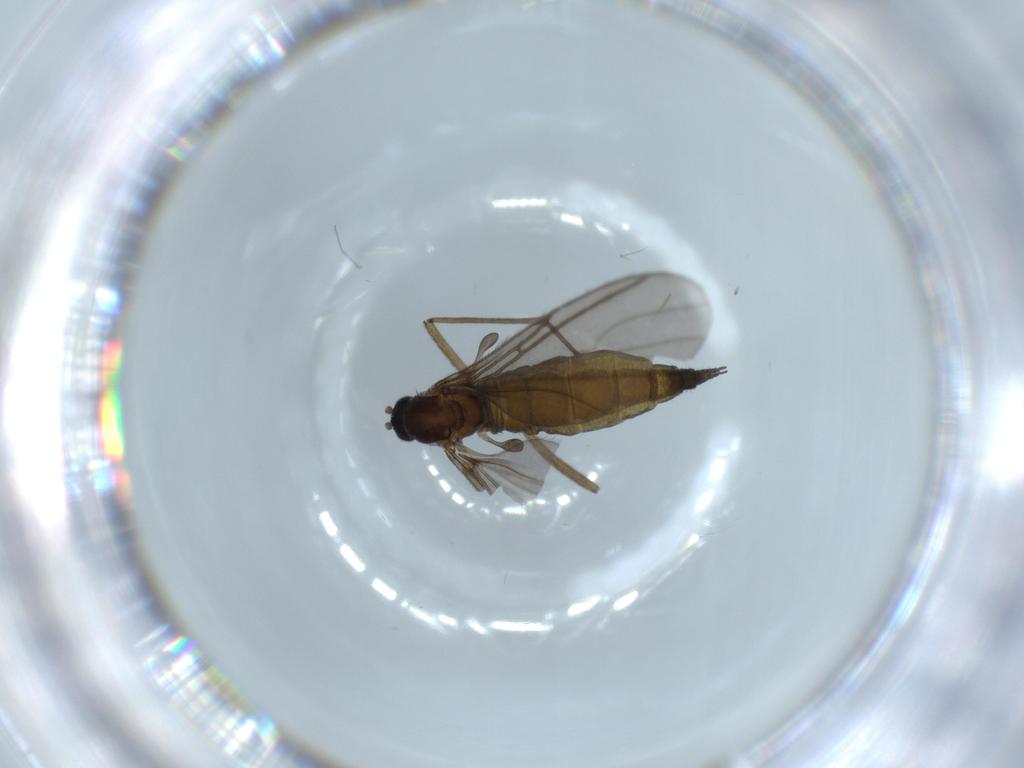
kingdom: Animalia
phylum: Arthropoda
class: Insecta
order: Diptera
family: Sciaridae
